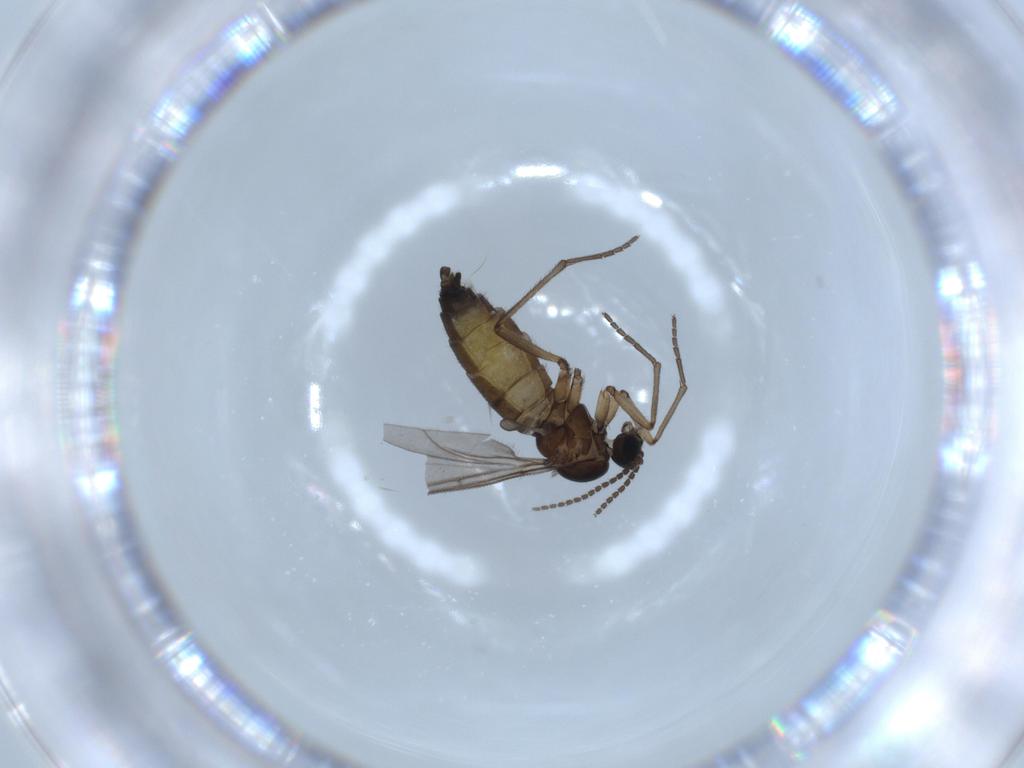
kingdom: Animalia
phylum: Arthropoda
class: Insecta
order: Diptera
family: Sciaridae
